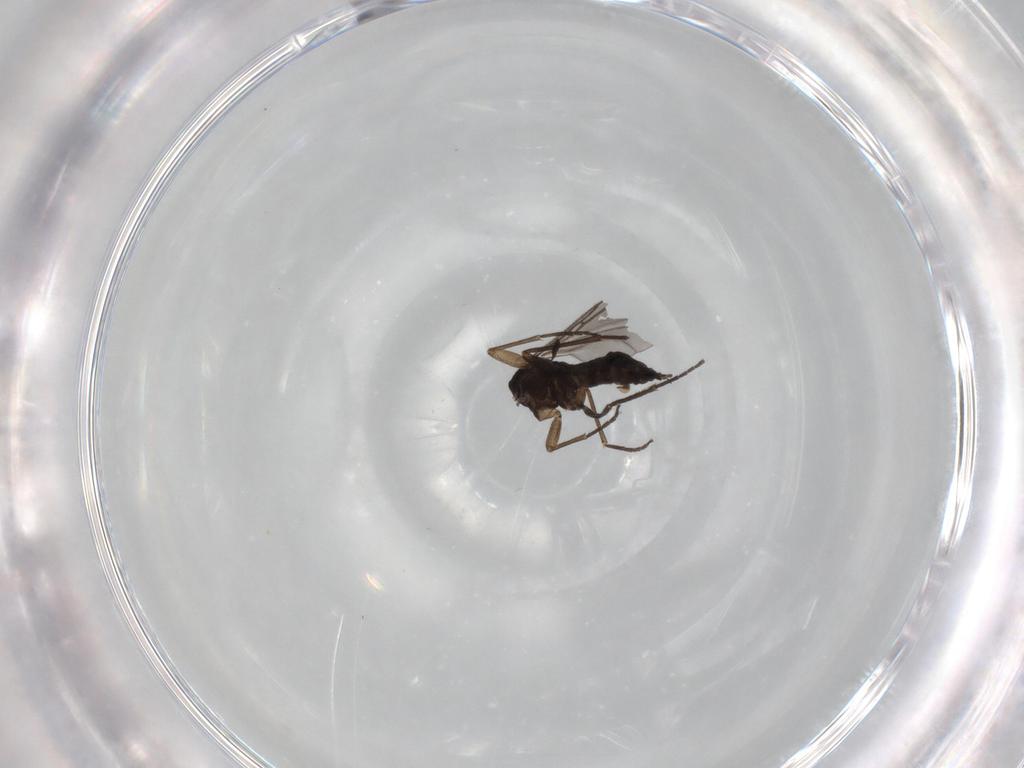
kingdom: Animalia
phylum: Arthropoda
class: Insecta
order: Diptera
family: Sciaridae
